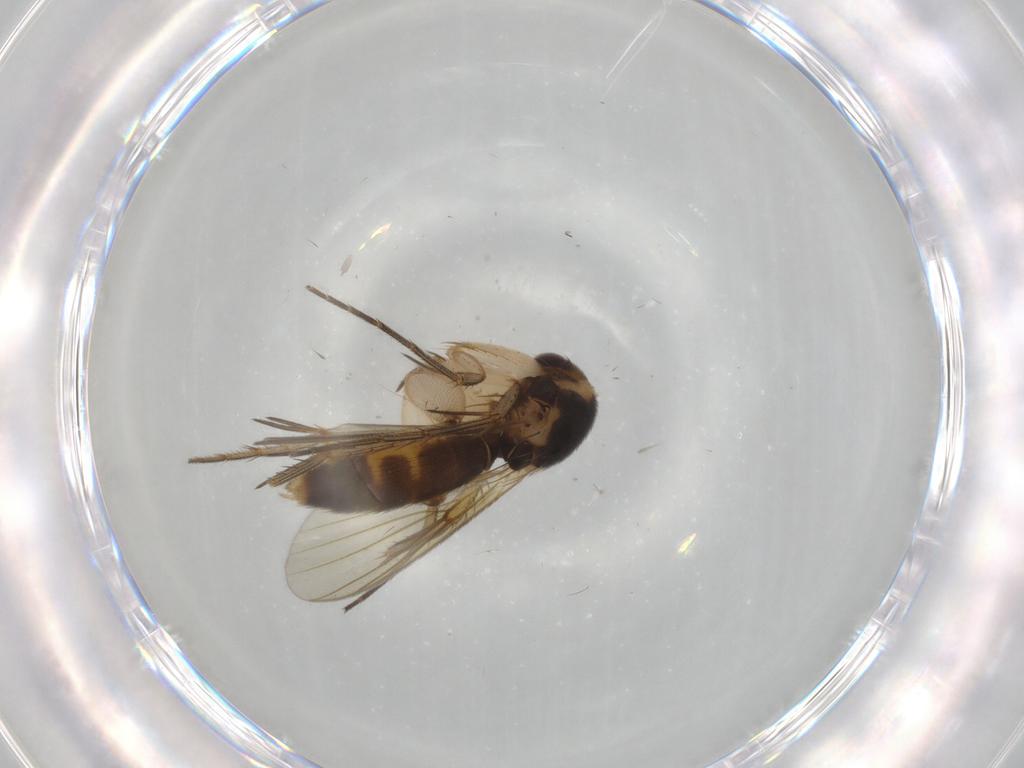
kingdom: Animalia
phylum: Arthropoda
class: Insecta
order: Diptera
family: Mycetophilidae
